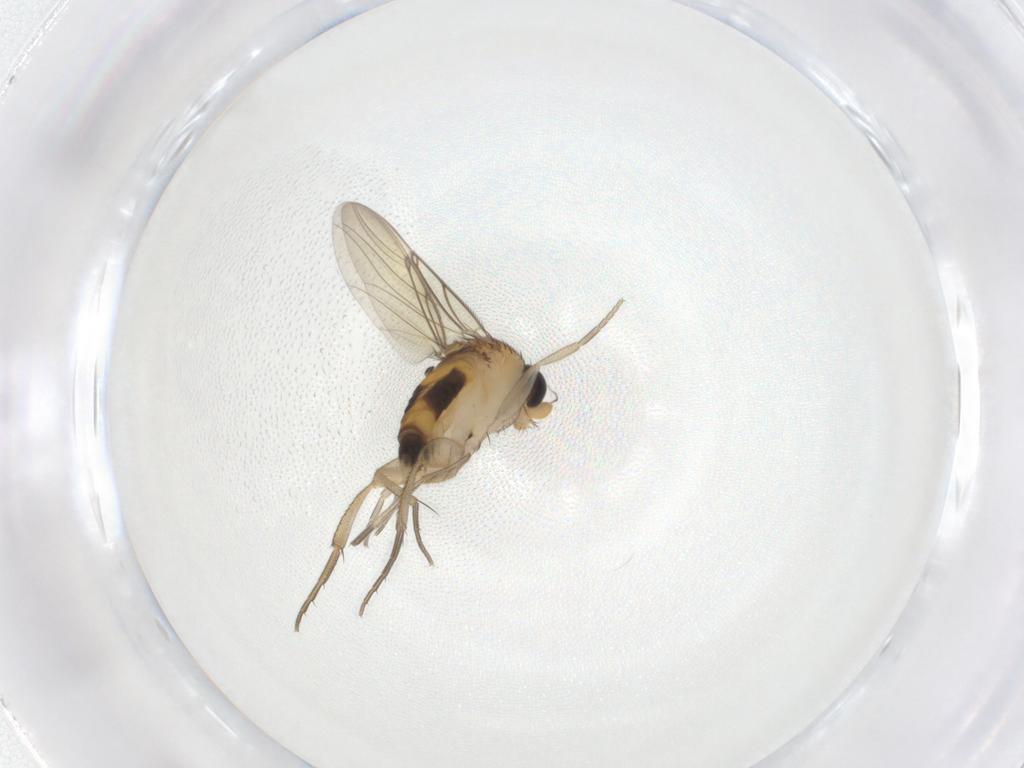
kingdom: Animalia
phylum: Arthropoda
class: Insecta
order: Diptera
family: Phoridae
